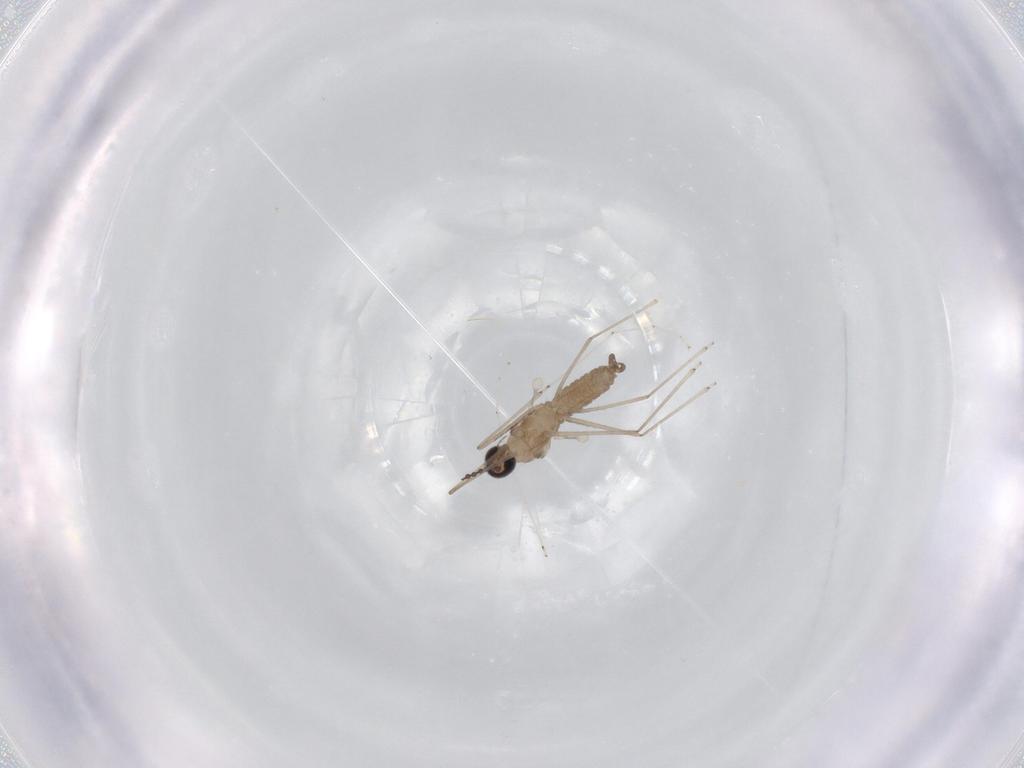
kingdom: Animalia
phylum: Arthropoda
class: Insecta
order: Diptera
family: Cecidomyiidae
